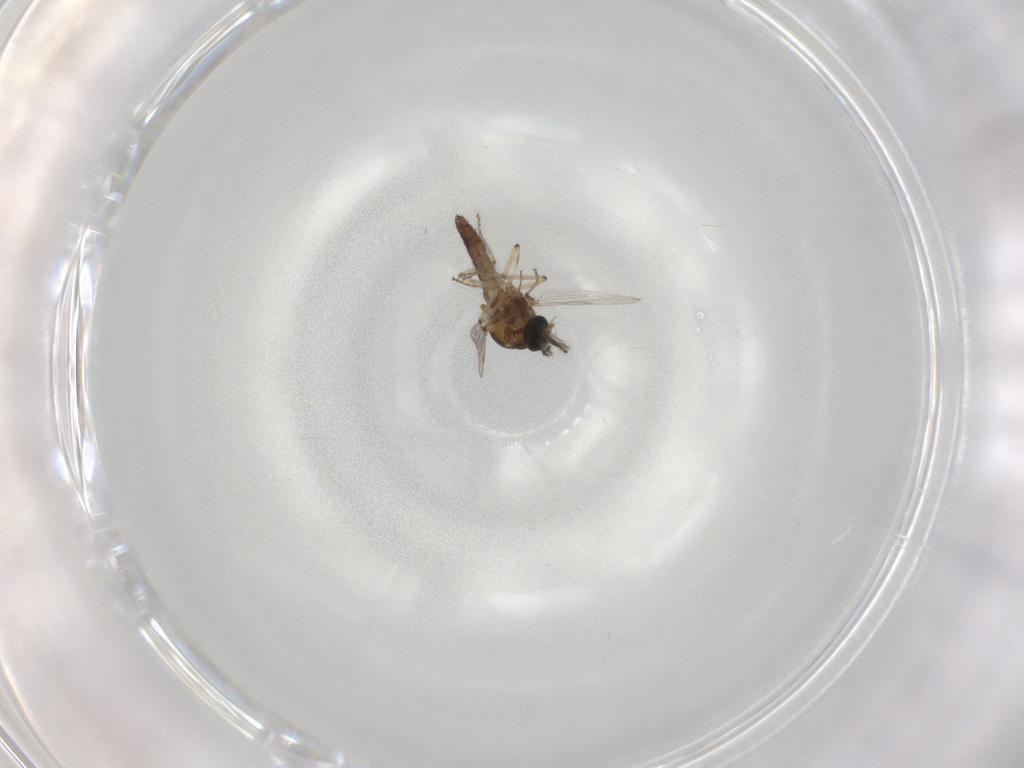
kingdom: Animalia
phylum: Arthropoda
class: Insecta
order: Diptera
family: Ceratopogonidae
